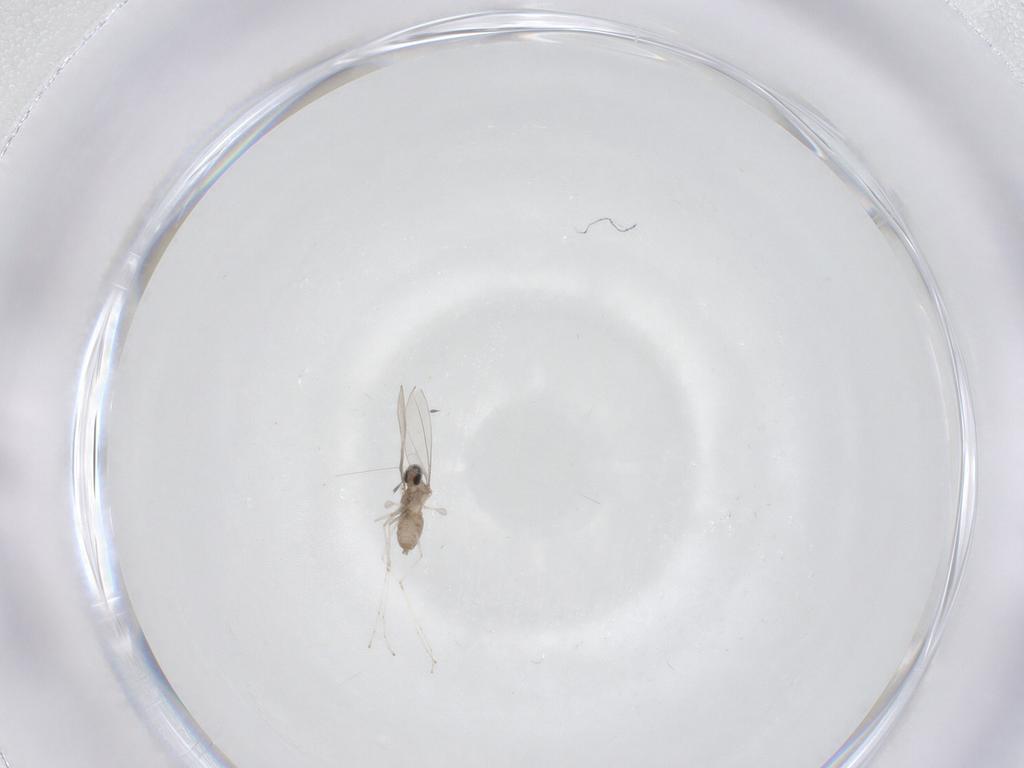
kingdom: Animalia
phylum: Arthropoda
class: Insecta
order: Diptera
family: Cecidomyiidae
